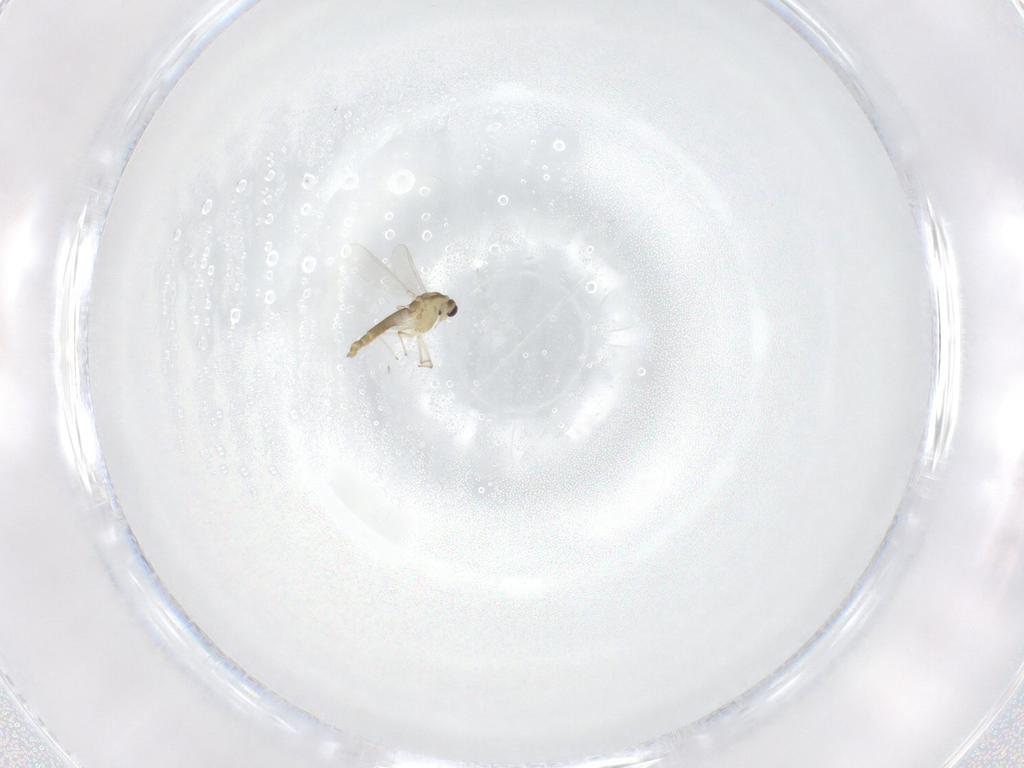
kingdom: Animalia
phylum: Arthropoda
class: Insecta
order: Diptera
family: Chironomidae
